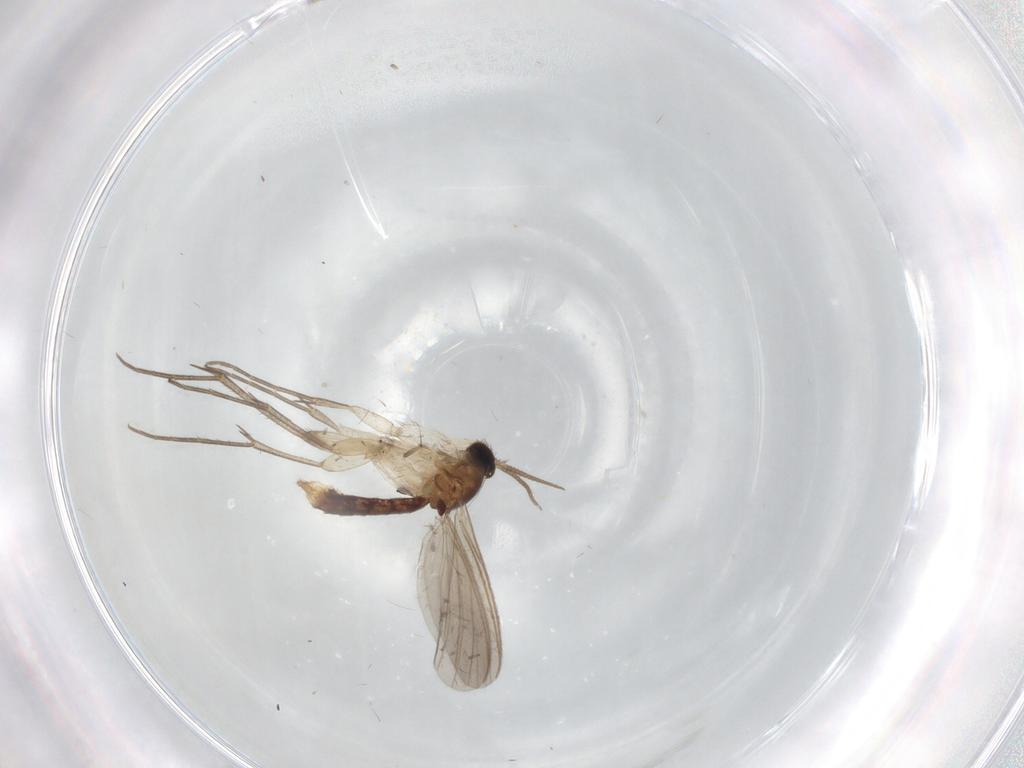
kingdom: Animalia
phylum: Arthropoda
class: Insecta
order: Diptera
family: Mycetophilidae
